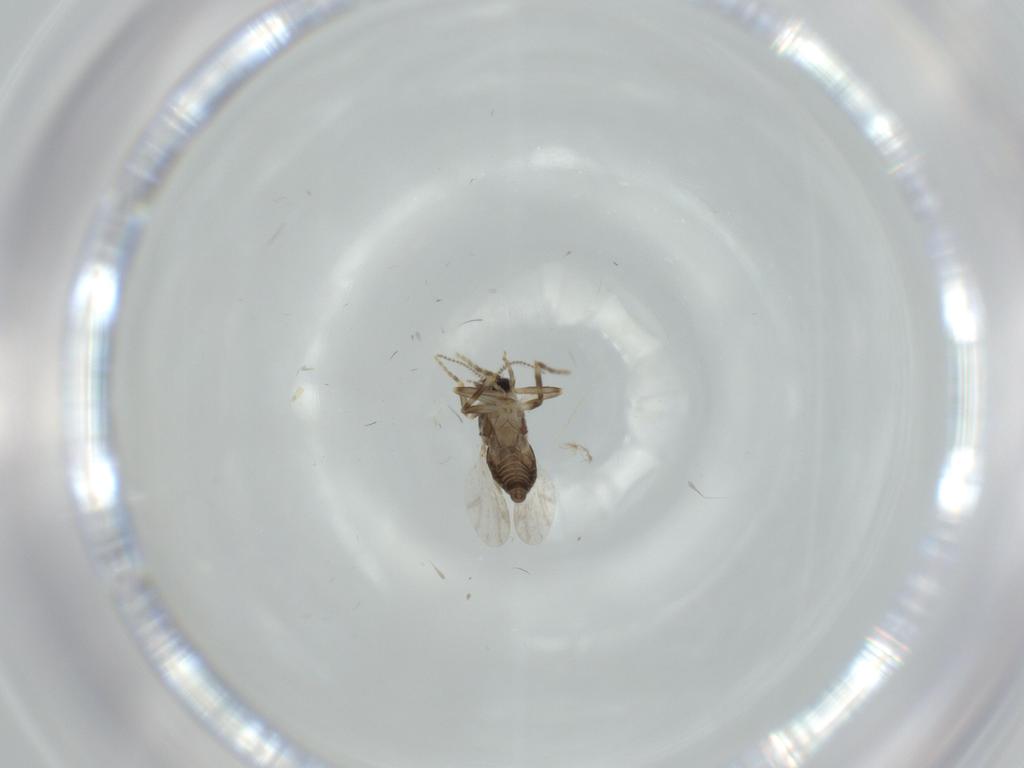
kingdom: Animalia
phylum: Arthropoda
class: Insecta
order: Diptera
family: Ceratopogonidae
